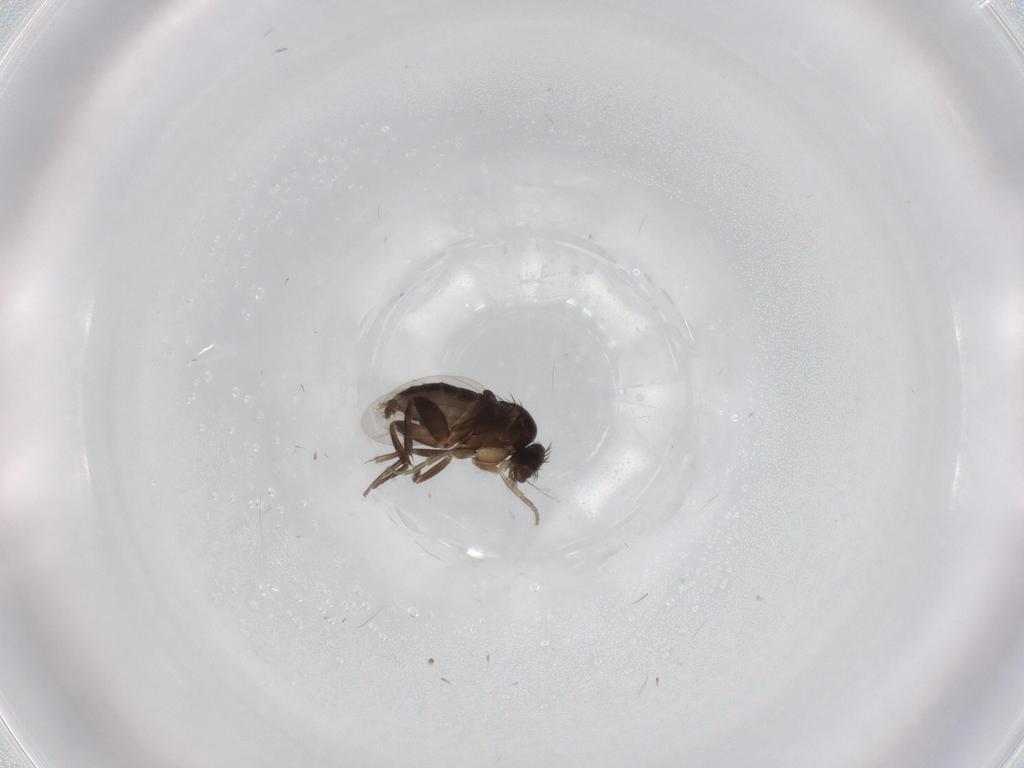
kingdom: Animalia
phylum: Arthropoda
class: Insecta
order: Diptera
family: Phoridae
